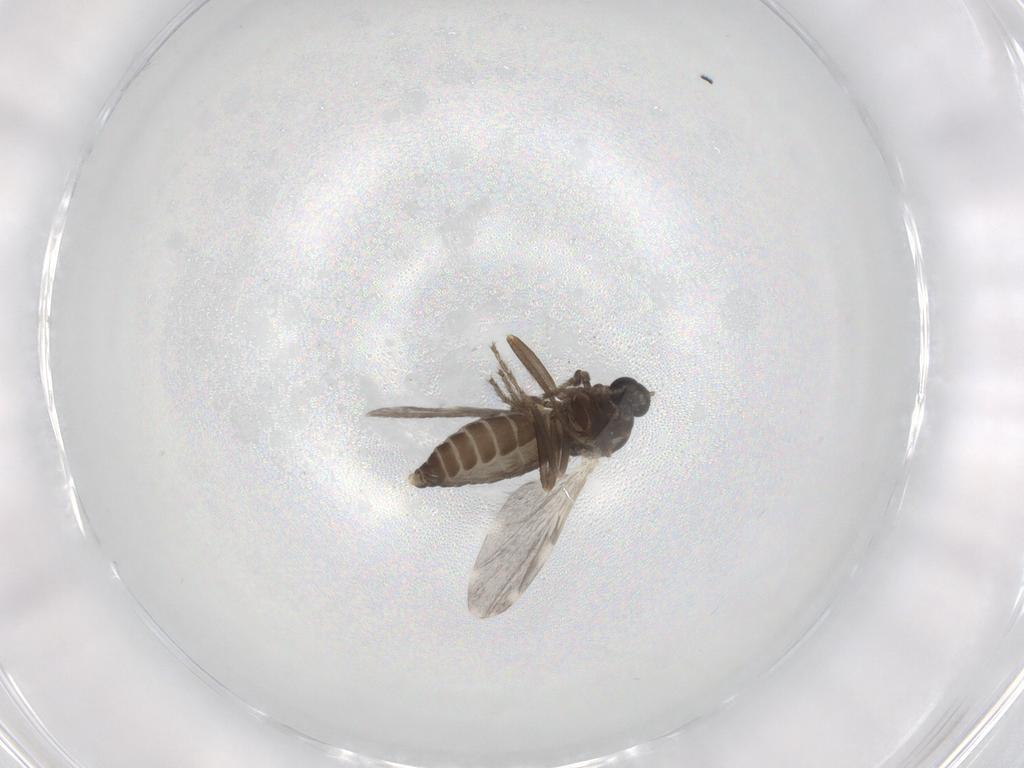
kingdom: Animalia
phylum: Arthropoda
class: Insecta
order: Diptera
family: Ceratopogonidae
